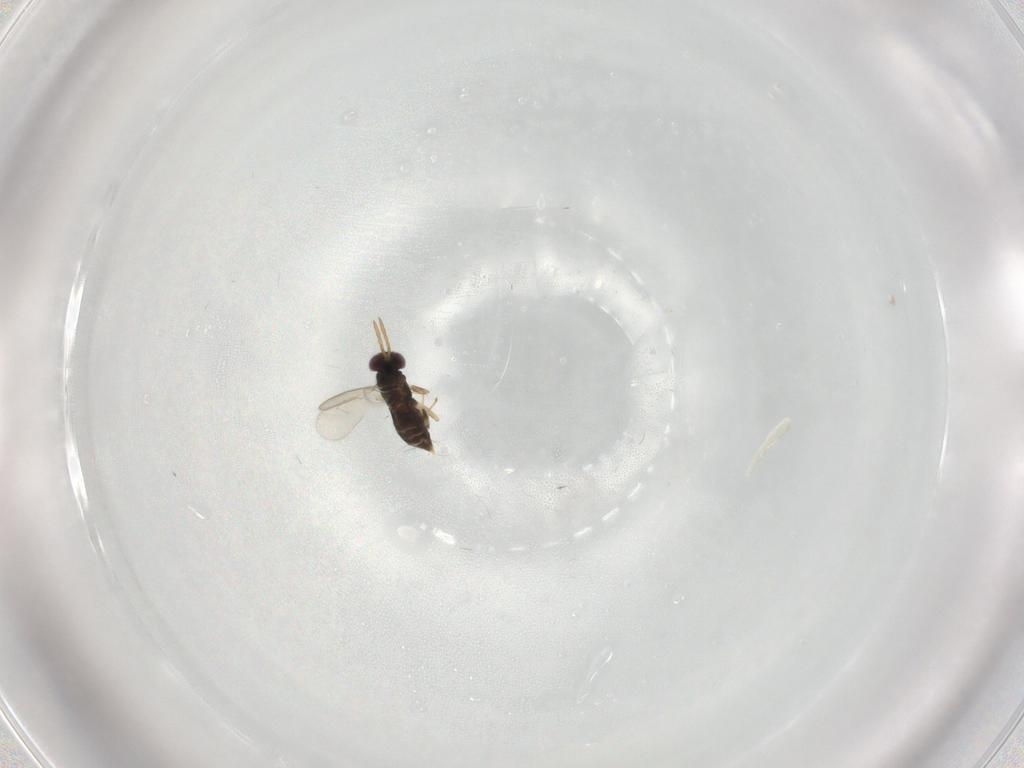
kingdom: Animalia
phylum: Arthropoda
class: Insecta
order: Hymenoptera
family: Aphelinidae
